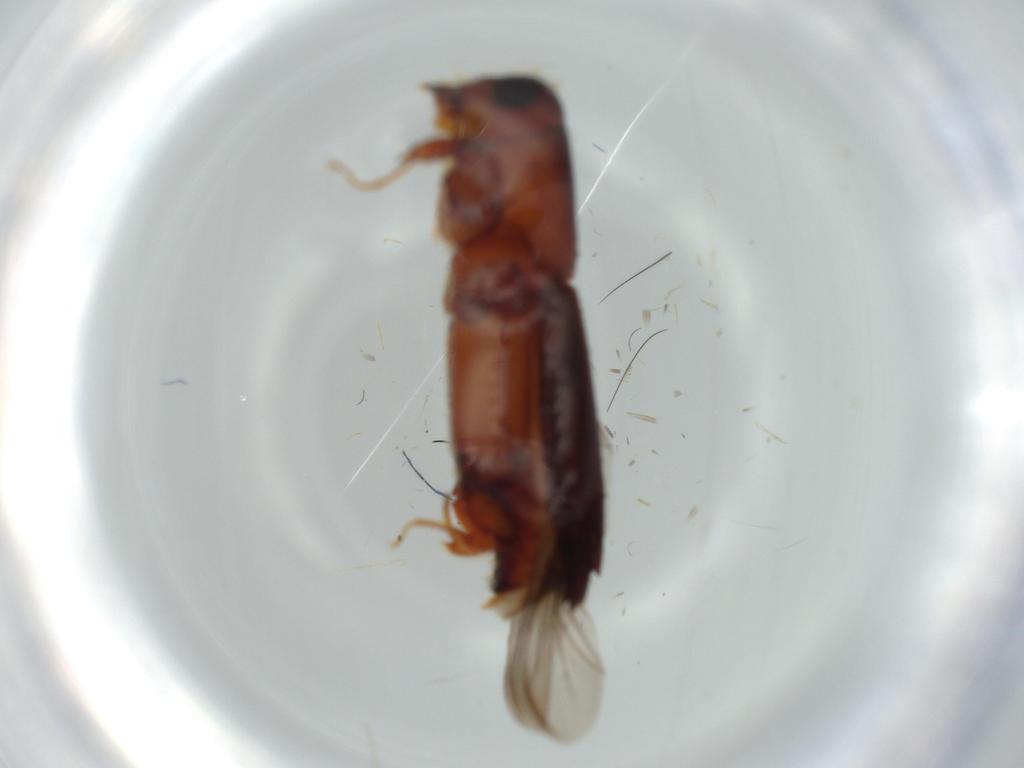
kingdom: Animalia
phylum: Arthropoda
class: Insecta
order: Coleoptera
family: Curculionidae
